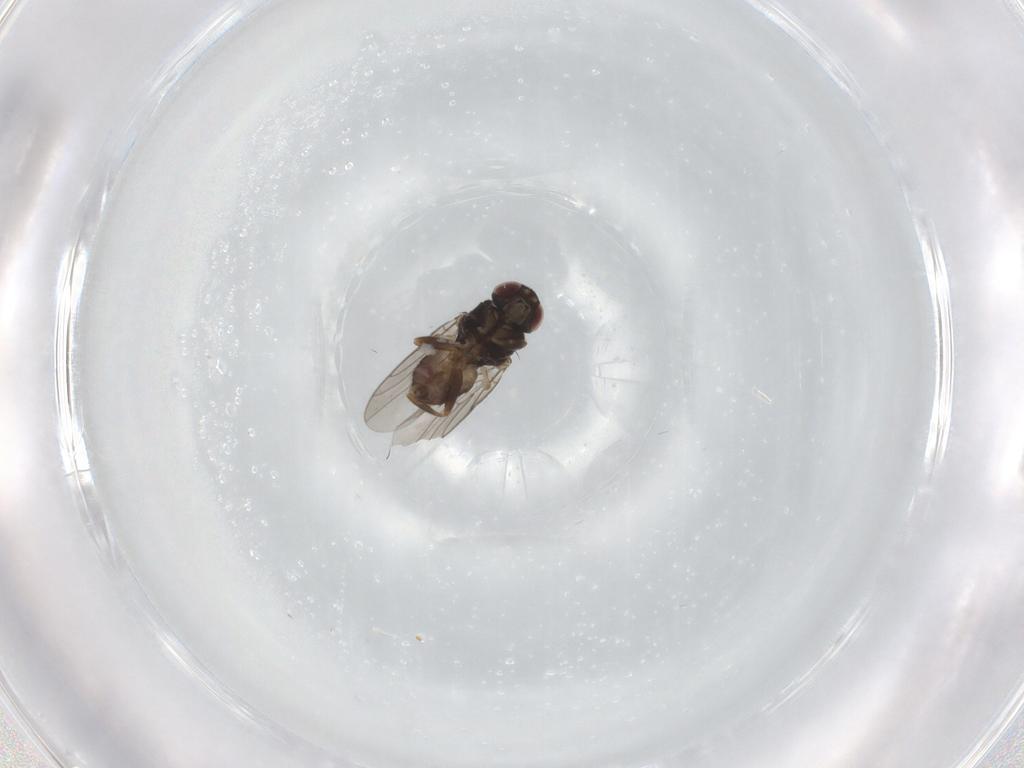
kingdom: Animalia
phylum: Arthropoda
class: Insecta
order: Diptera
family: Chloropidae
